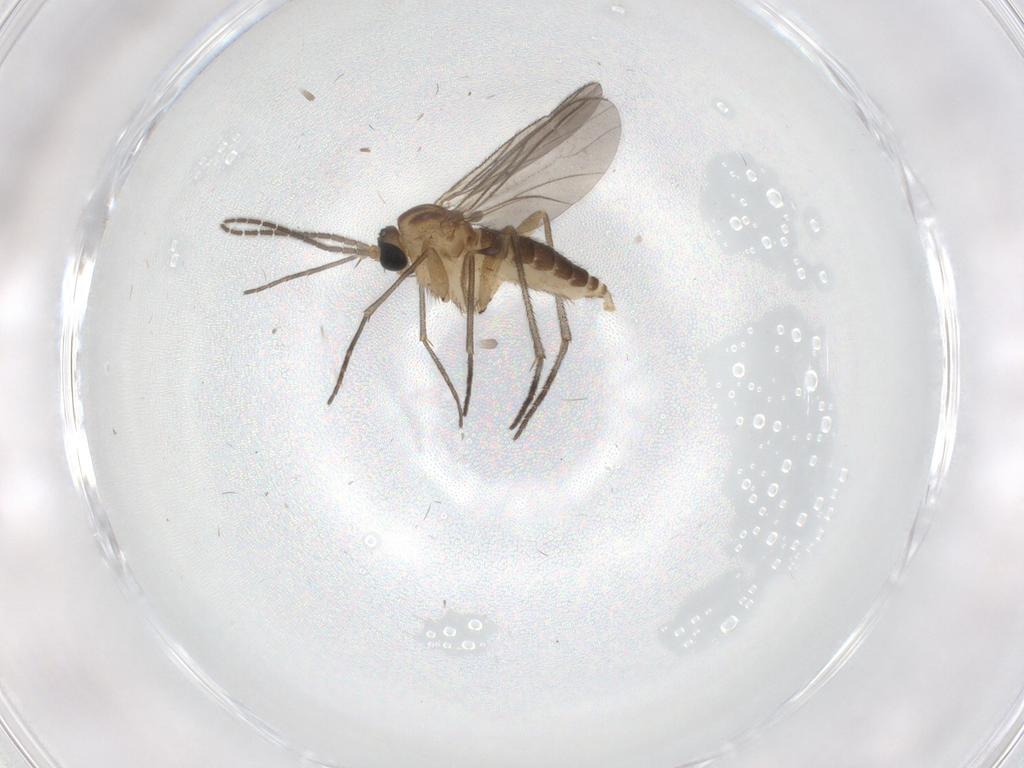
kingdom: Animalia
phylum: Arthropoda
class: Insecta
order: Diptera
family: Sciaridae
